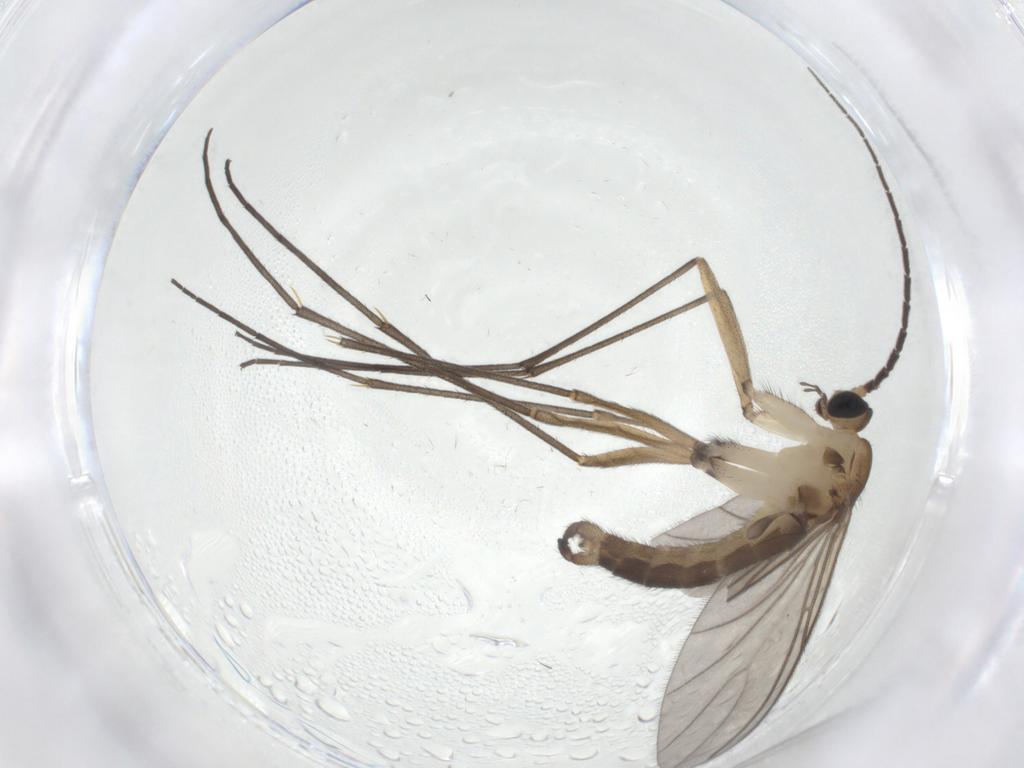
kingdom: Animalia
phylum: Arthropoda
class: Insecta
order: Diptera
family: Sciaridae
